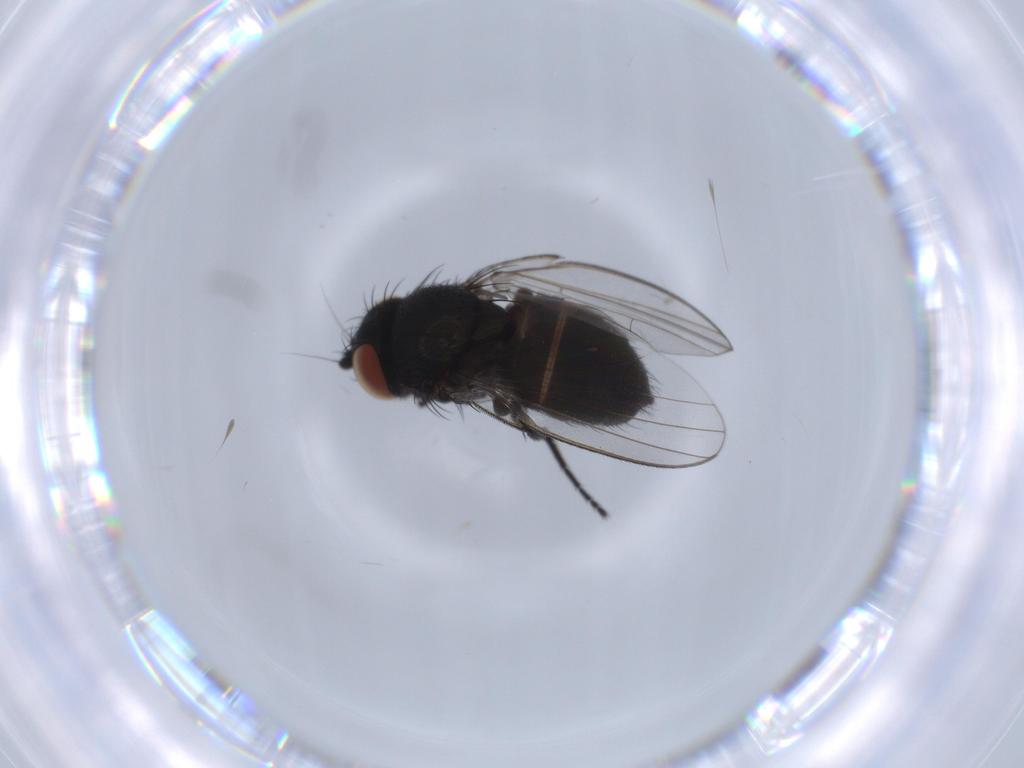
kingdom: Animalia
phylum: Arthropoda
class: Insecta
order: Diptera
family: Milichiidae
